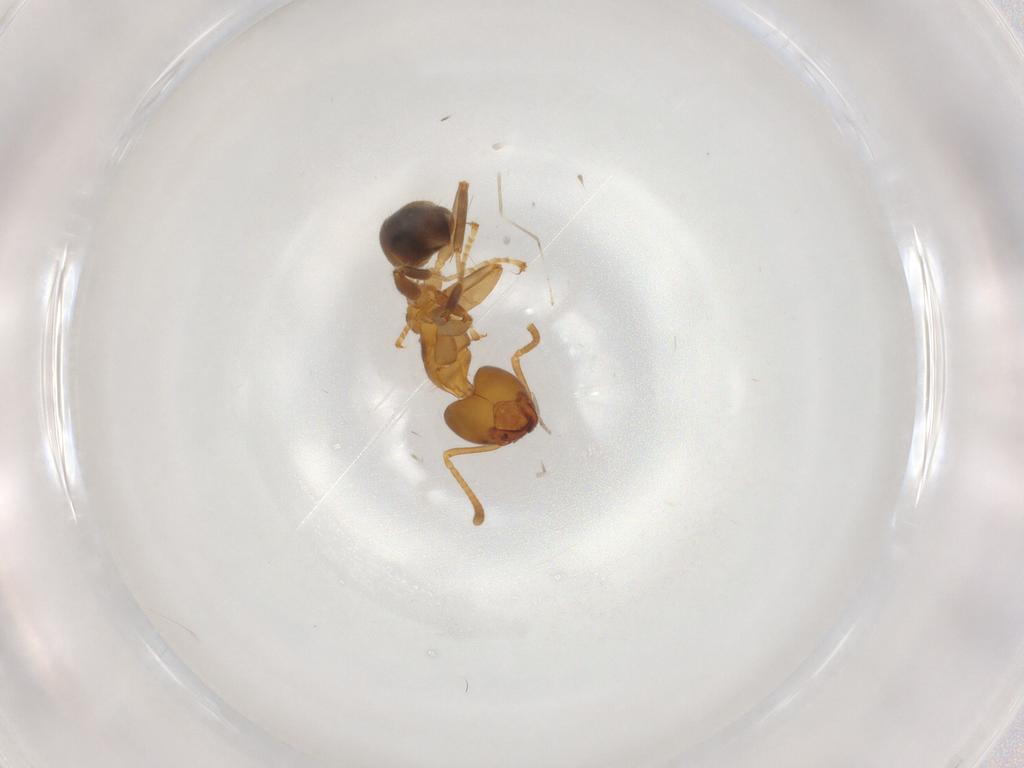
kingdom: Animalia
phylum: Arthropoda
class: Insecta
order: Hymenoptera
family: Formicidae
